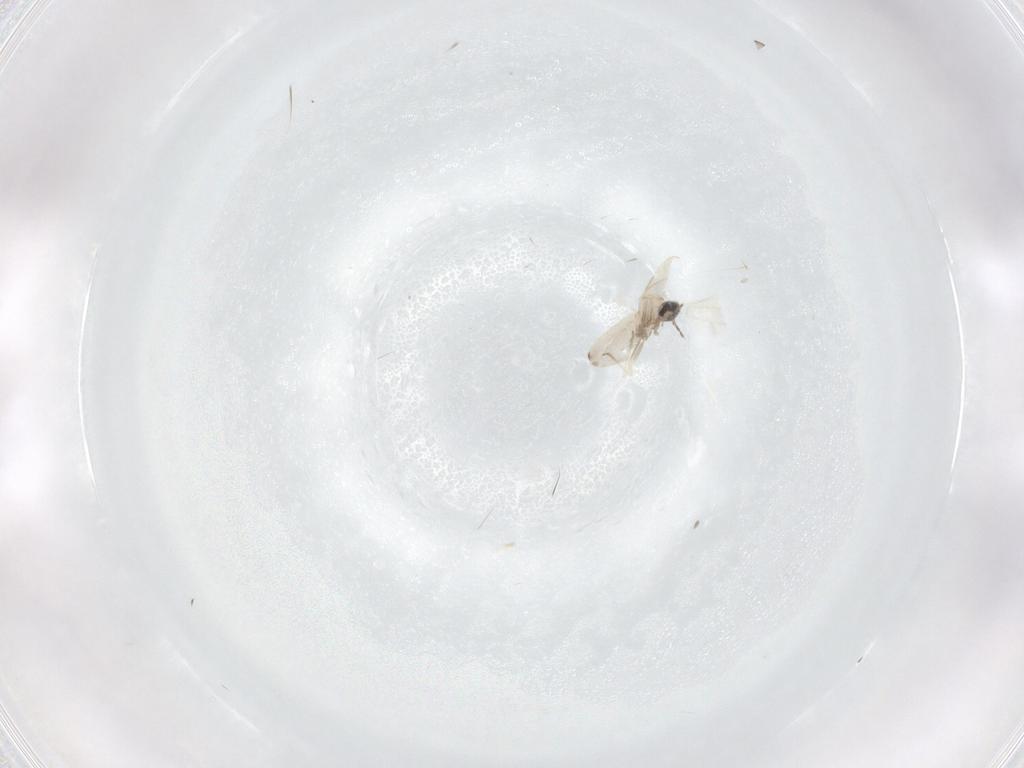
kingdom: Animalia
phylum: Arthropoda
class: Insecta
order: Diptera
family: Cecidomyiidae
